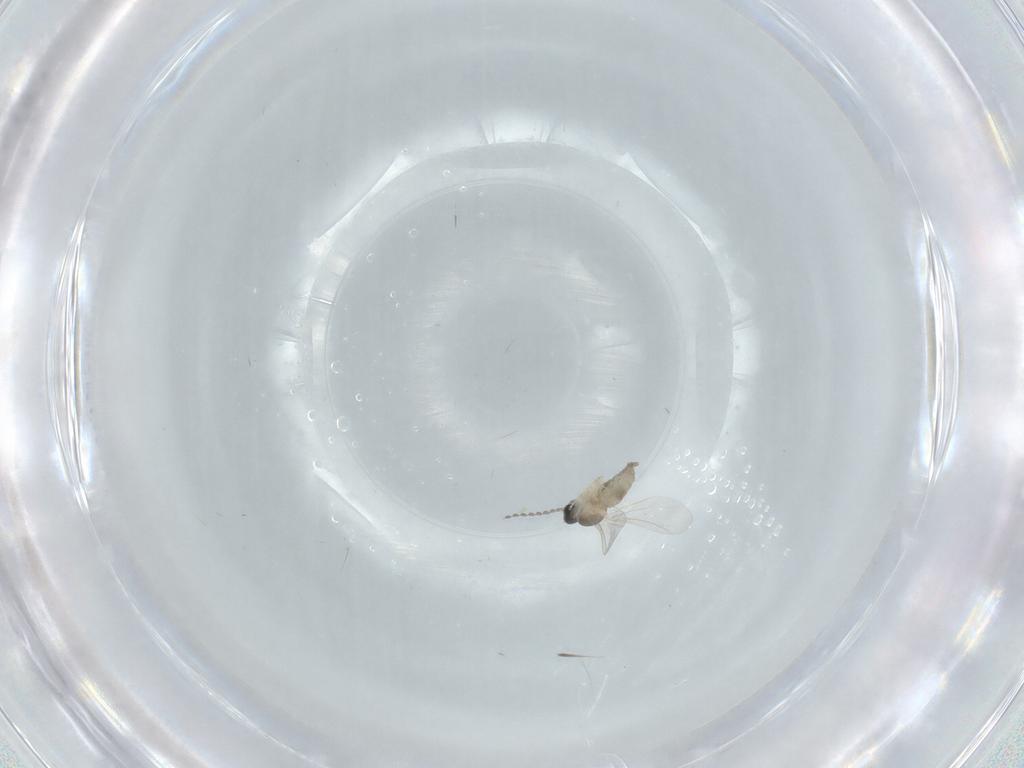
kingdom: Animalia
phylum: Arthropoda
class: Insecta
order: Diptera
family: Cecidomyiidae
